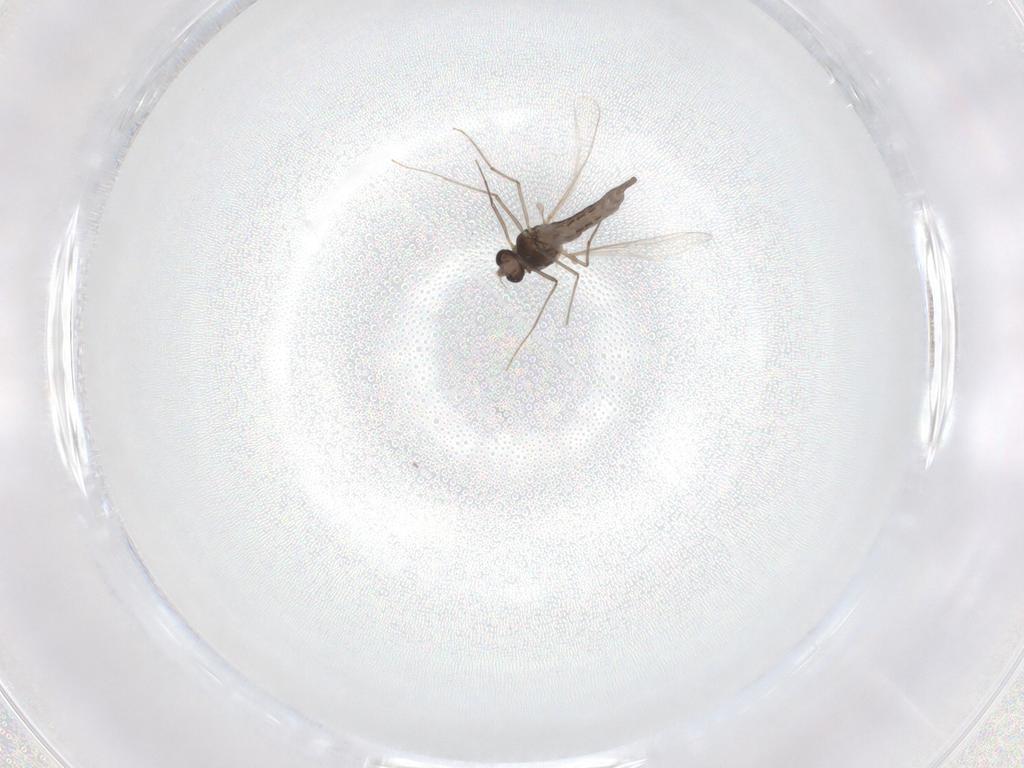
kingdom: Animalia
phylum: Arthropoda
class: Insecta
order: Diptera
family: Chironomidae
